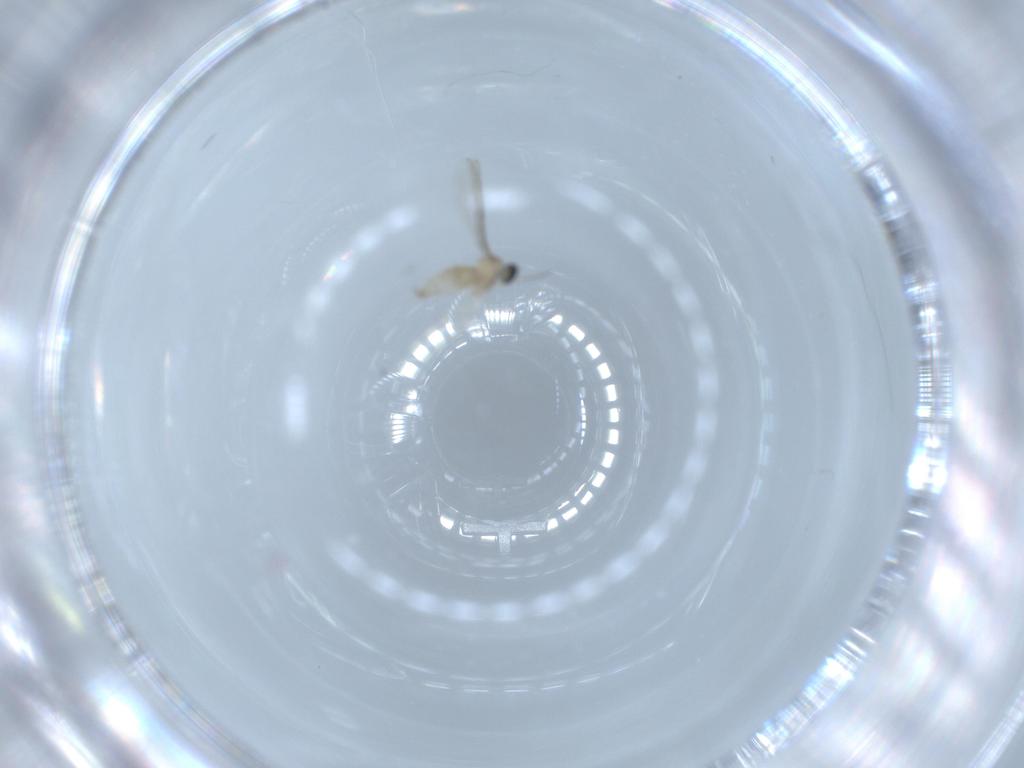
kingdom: Animalia
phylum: Arthropoda
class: Insecta
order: Diptera
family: Cecidomyiidae
